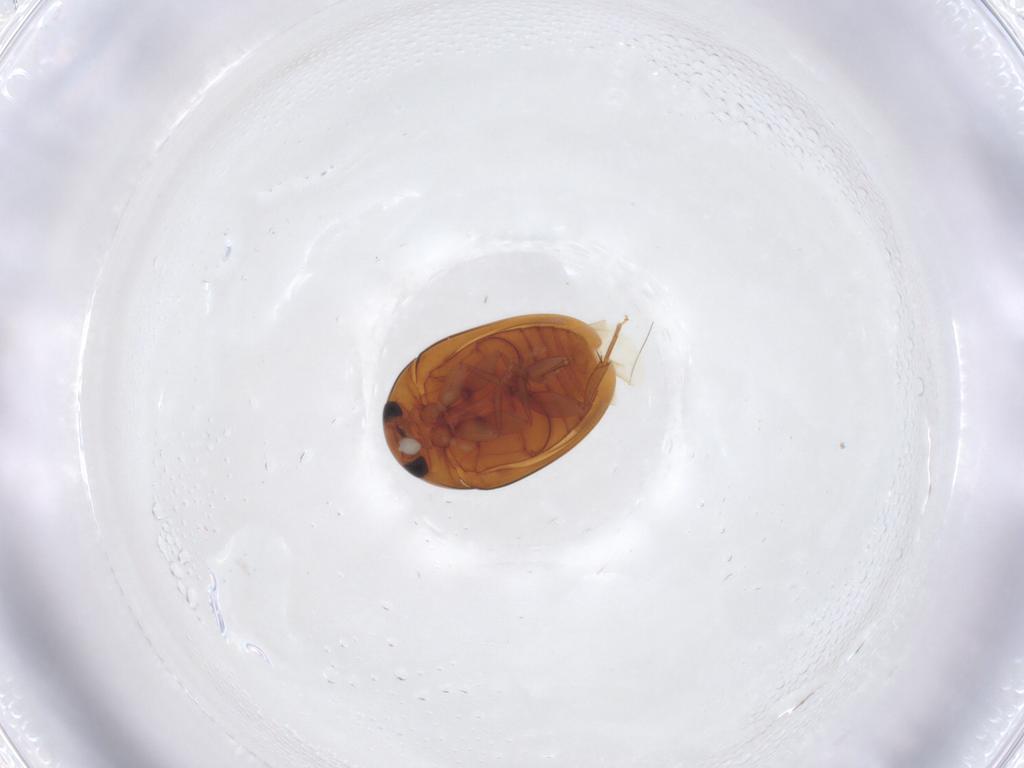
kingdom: Animalia
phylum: Arthropoda
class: Insecta
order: Coleoptera
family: Phalacridae
